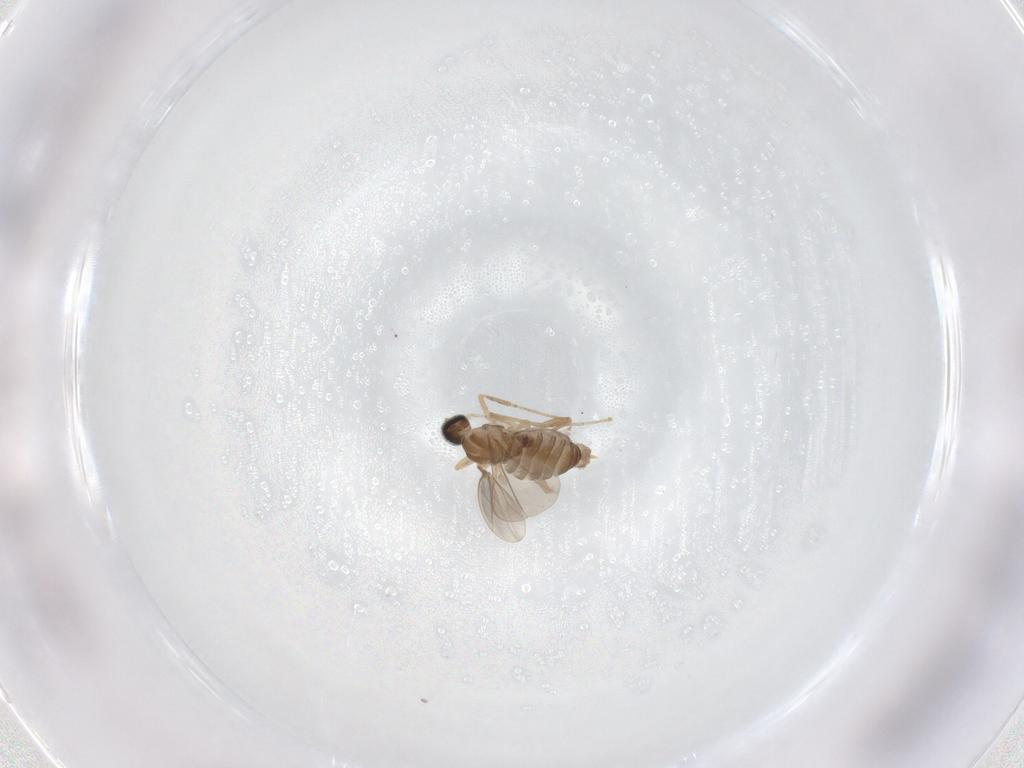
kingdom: Animalia
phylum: Arthropoda
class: Insecta
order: Diptera
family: Cecidomyiidae
